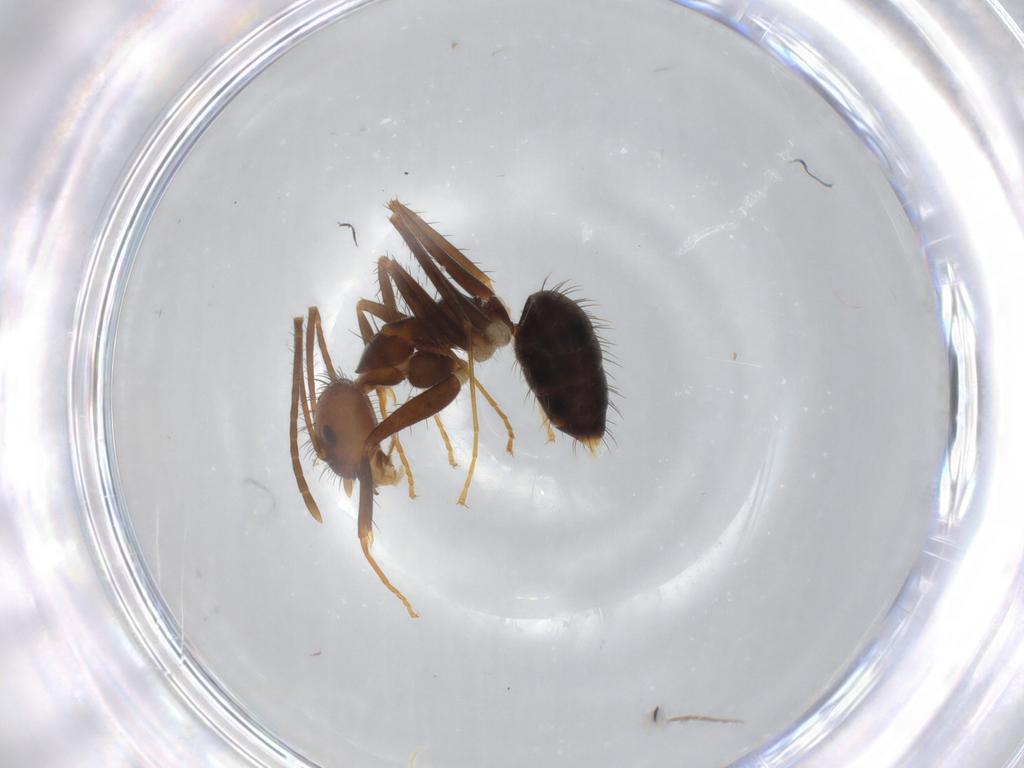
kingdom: Animalia
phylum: Arthropoda
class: Insecta
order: Hymenoptera
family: Formicidae
